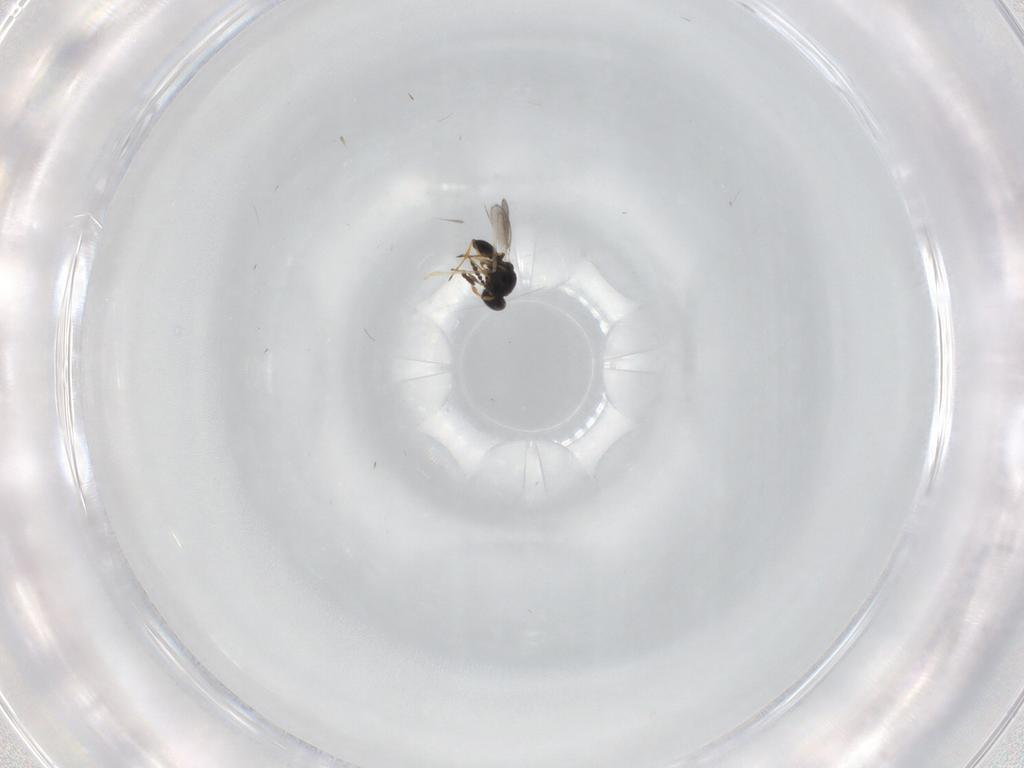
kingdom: Animalia
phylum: Arthropoda
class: Insecta
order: Hymenoptera
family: Platygastridae
